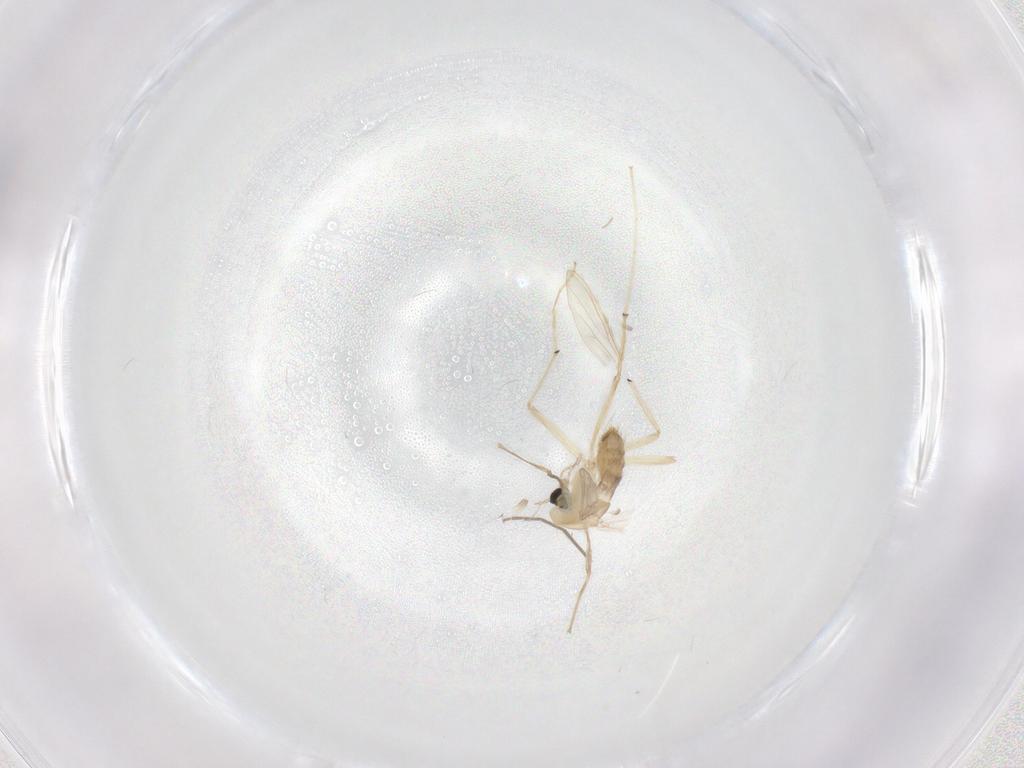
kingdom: Animalia
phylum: Arthropoda
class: Insecta
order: Diptera
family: Chironomidae
